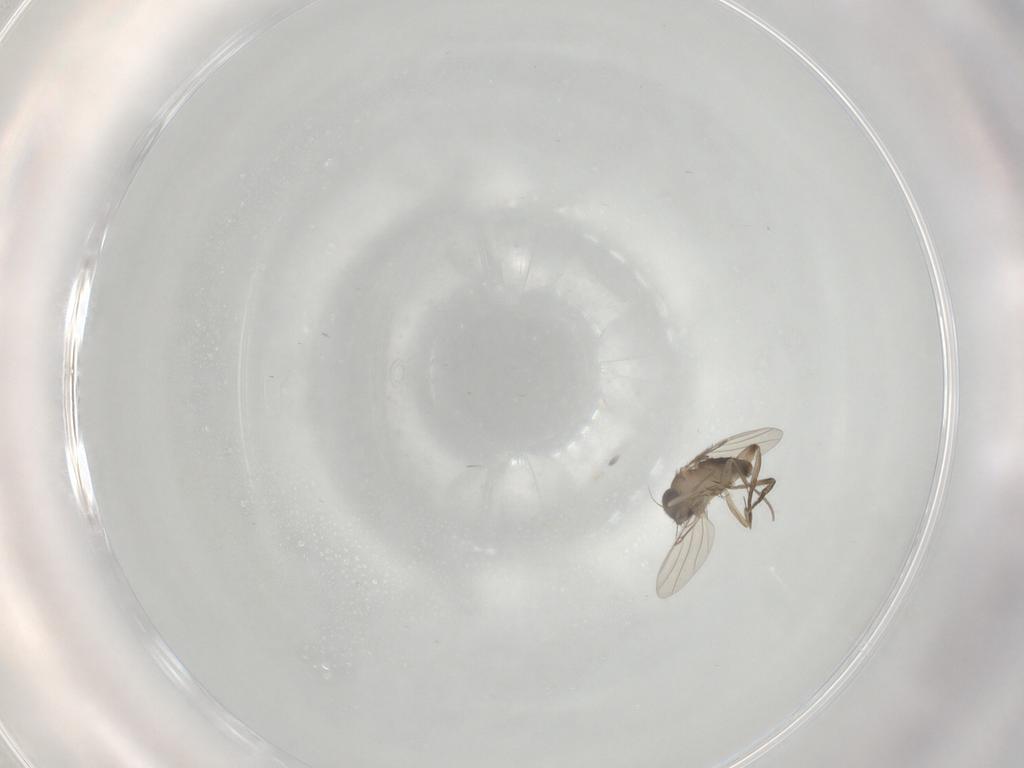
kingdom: Animalia
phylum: Arthropoda
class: Insecta
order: Diptera
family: Phoridae
